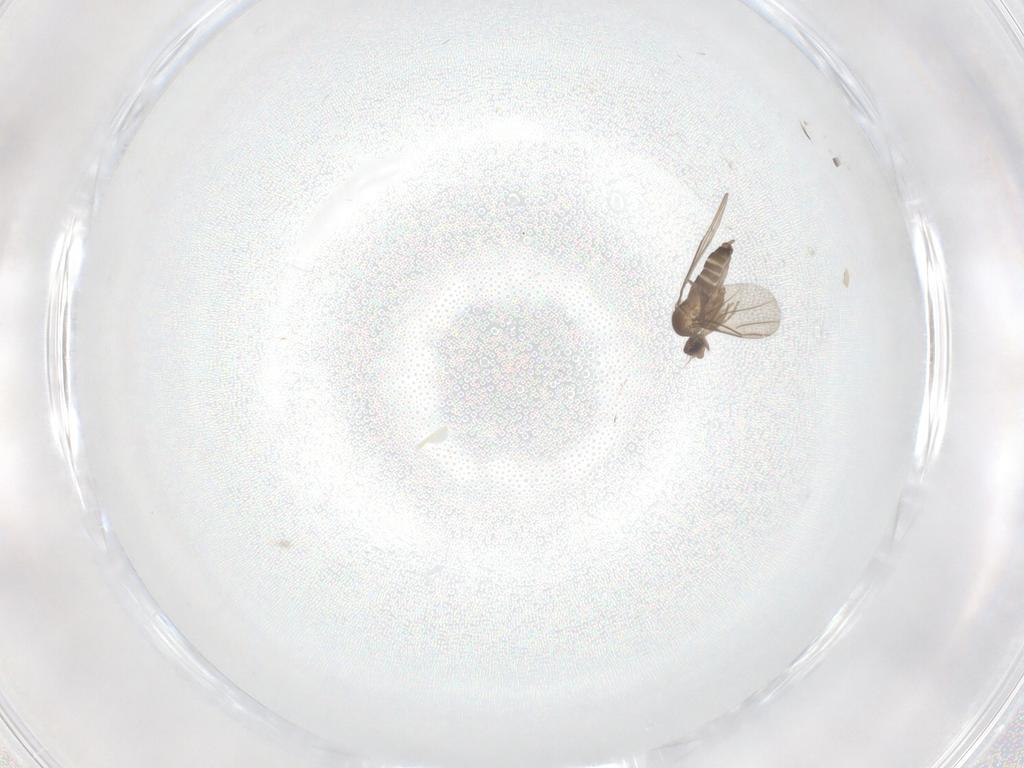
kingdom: Animalia
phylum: Arthropoda
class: Insecta
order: Diptera
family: Phoridae
